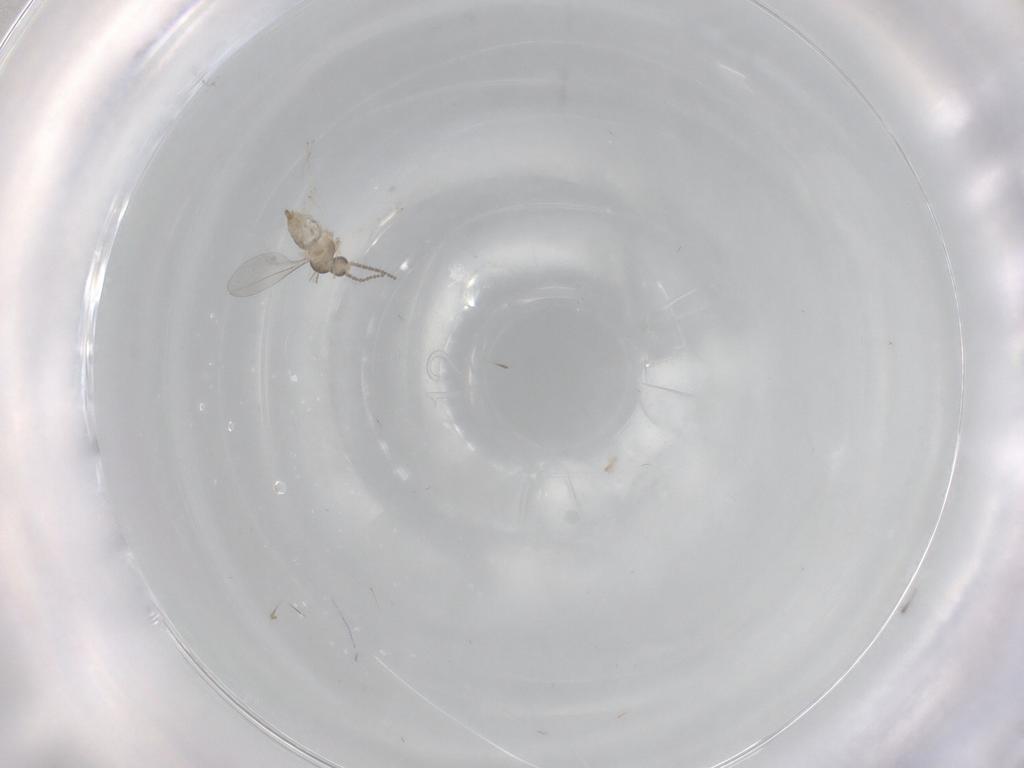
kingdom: Animalia
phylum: Arthropoda
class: Insecta
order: Diptera
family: Cecidomyiidae
